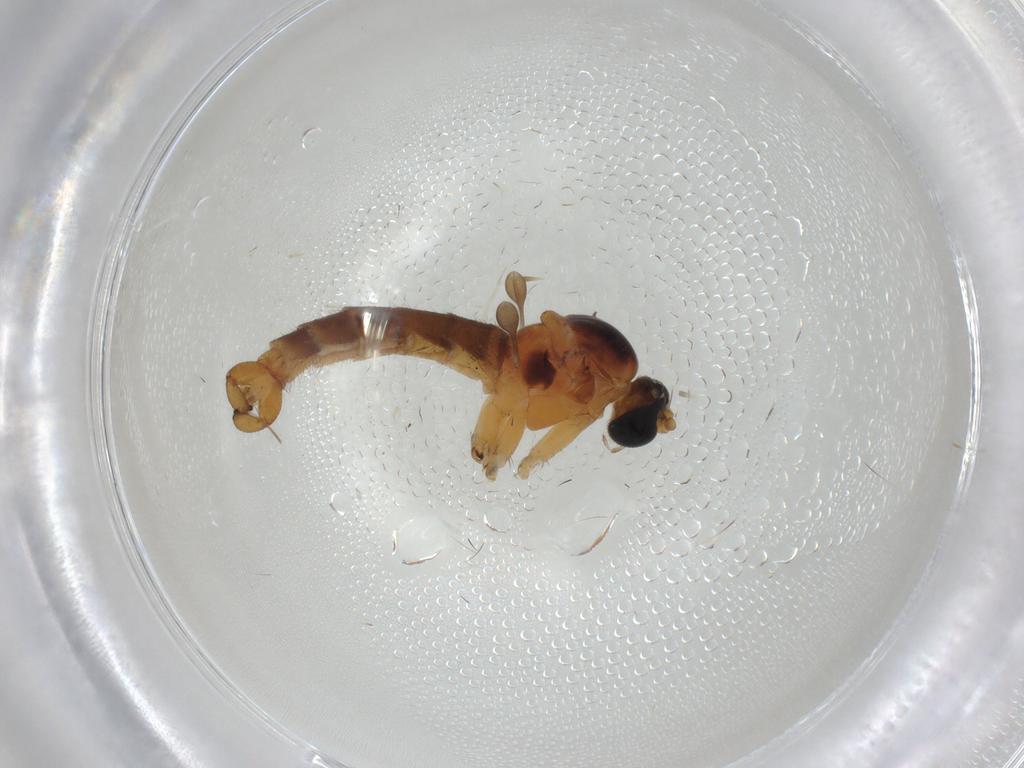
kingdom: Animalia
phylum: Arthropoda
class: Insecta
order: Diptera
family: Sciaridae
